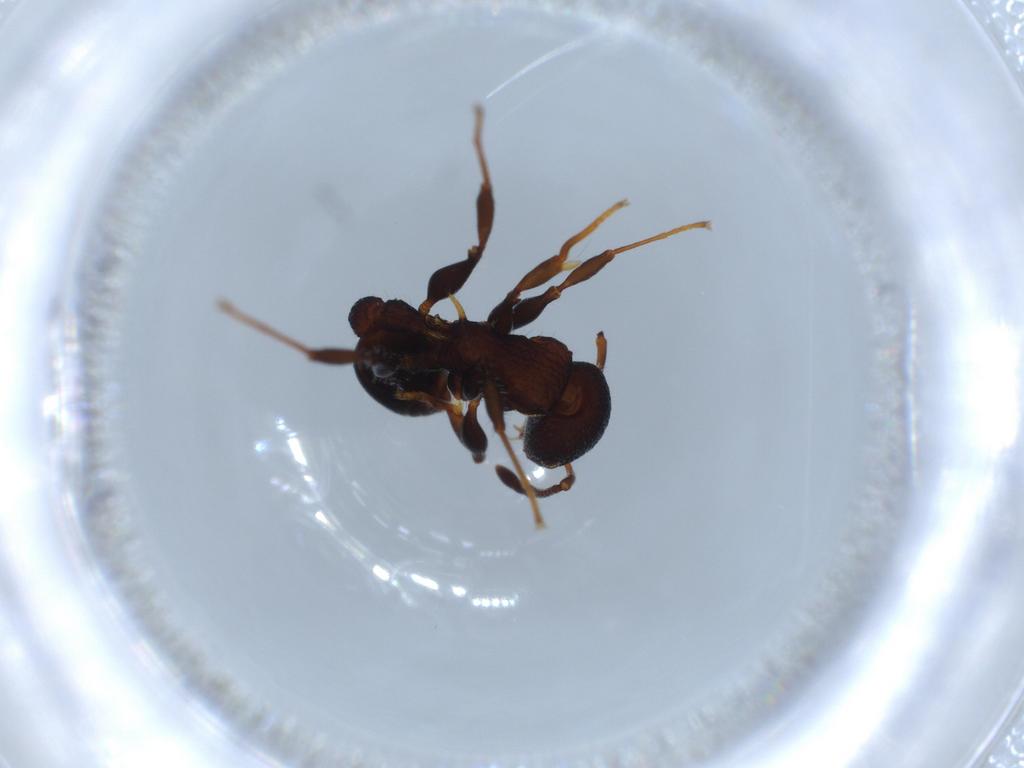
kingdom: Animalia
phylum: Arthropoda
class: Insecta
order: Hymenoptera
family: Formicidae
